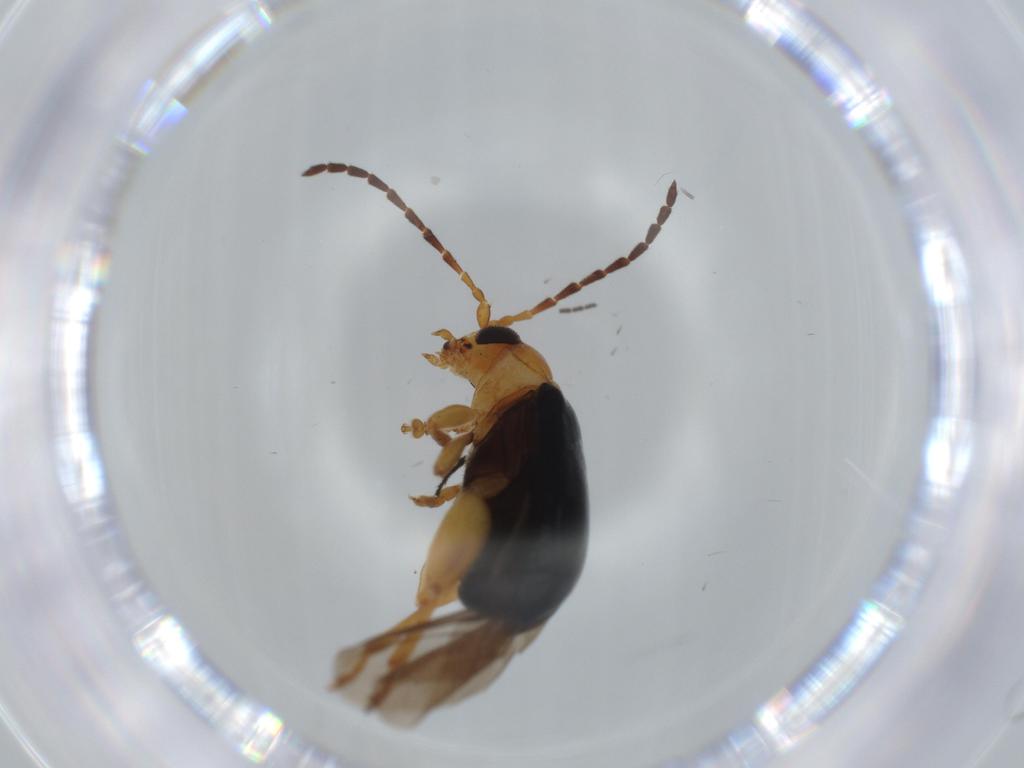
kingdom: Animalia
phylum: Arthropoda
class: Insecta
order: Coleoptera
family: Chrysomelidae
